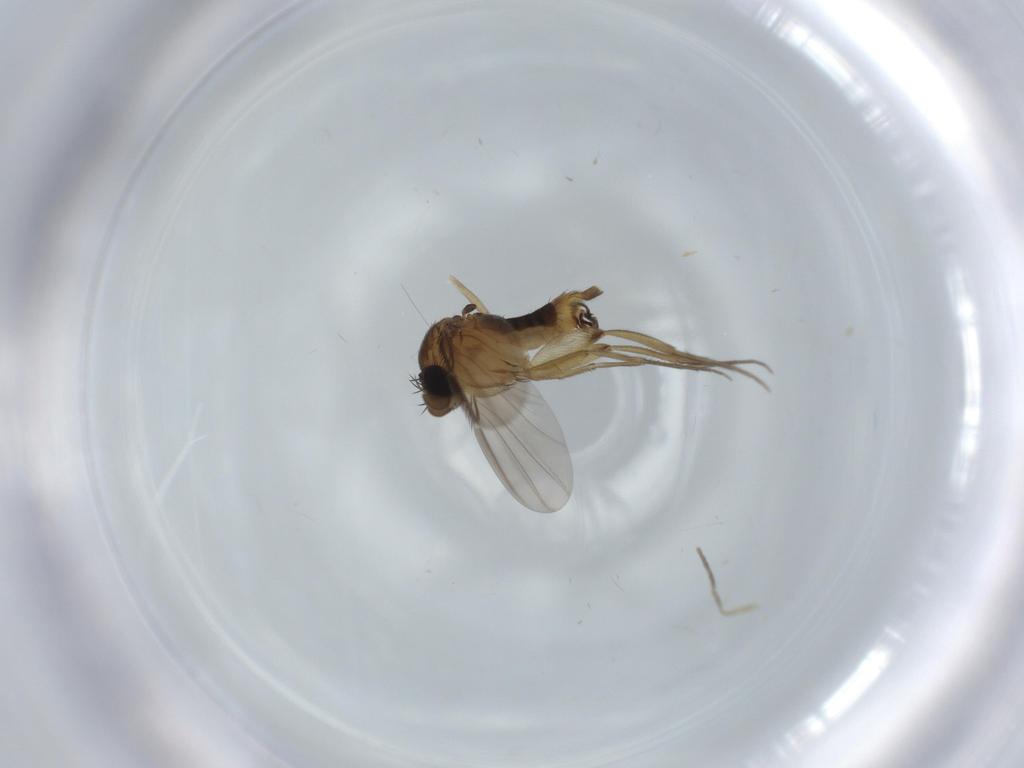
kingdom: Animalia
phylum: Arthropoda
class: Insecta
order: Diptera
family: Phoridae
